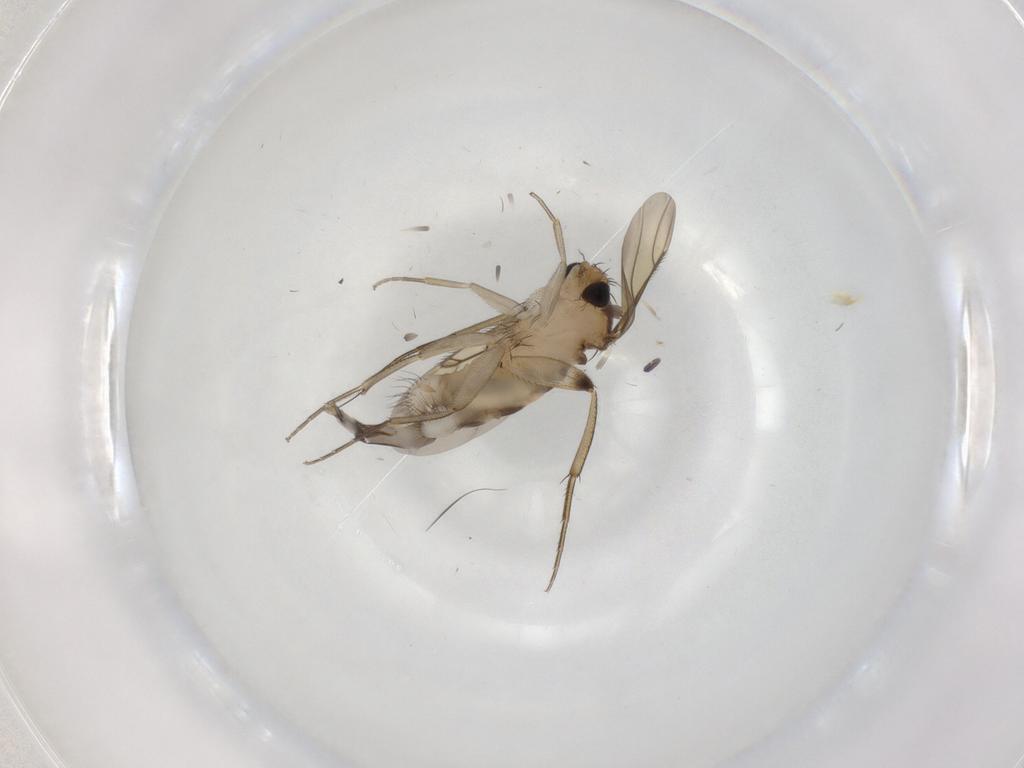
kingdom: Animalia
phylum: Arthropoda
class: Insecta
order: Diptera
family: Phoridae
